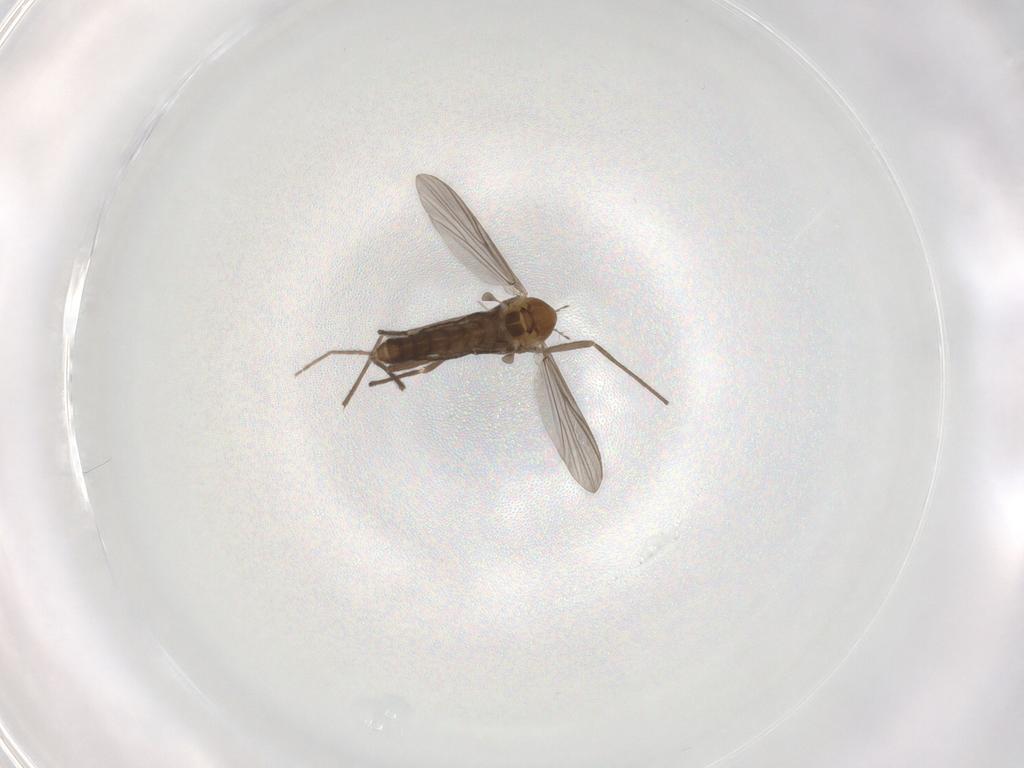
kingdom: Animalia
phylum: Arthropoda
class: Insecta
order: Diptera
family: Chironomidae
